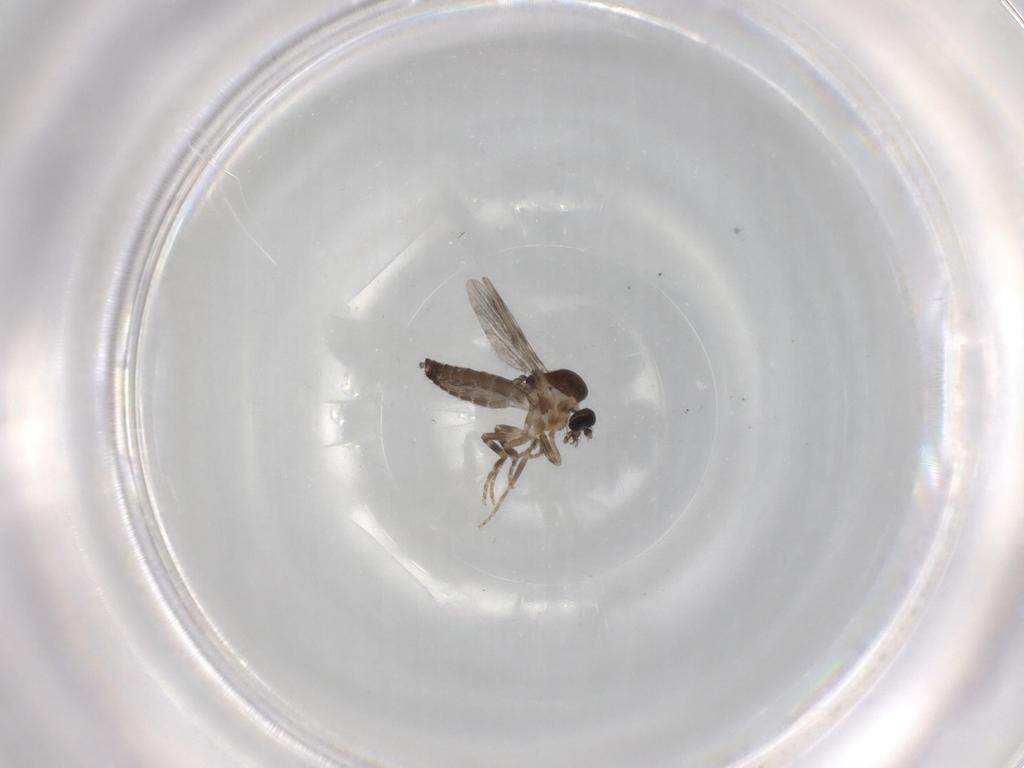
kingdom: Animalia
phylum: Arthropoda
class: Insecta
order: Diptera
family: Ceratopogonidae
